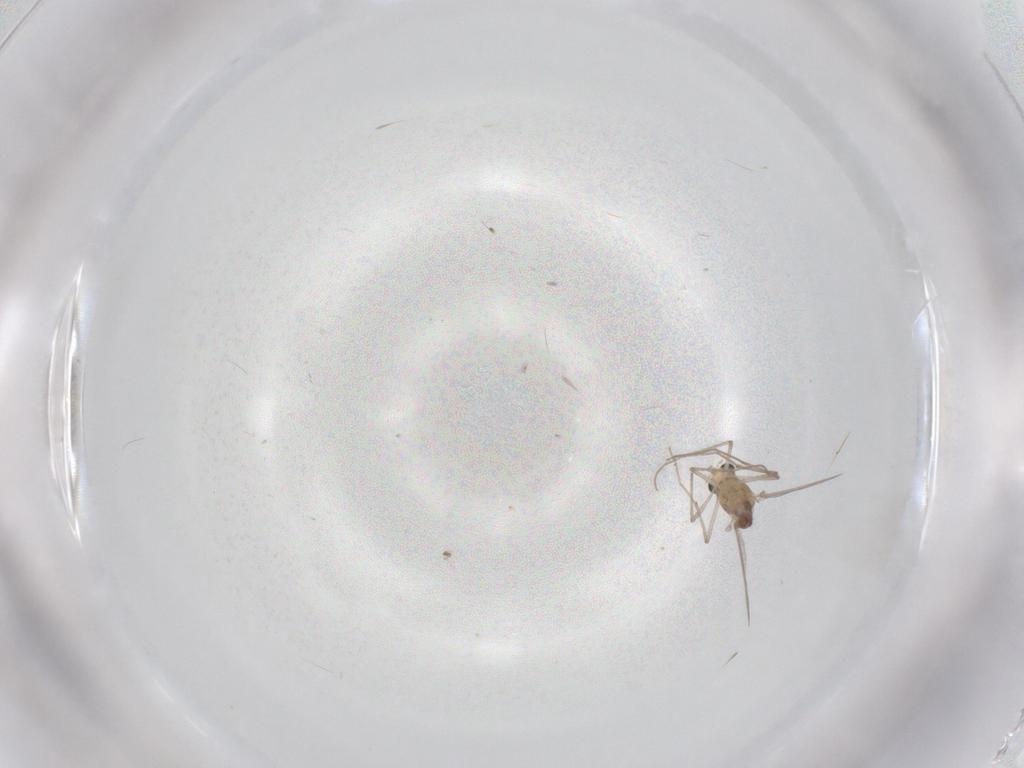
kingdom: Animalia
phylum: Arthropoda
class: Insecta
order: Diptera
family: Chironomidae
